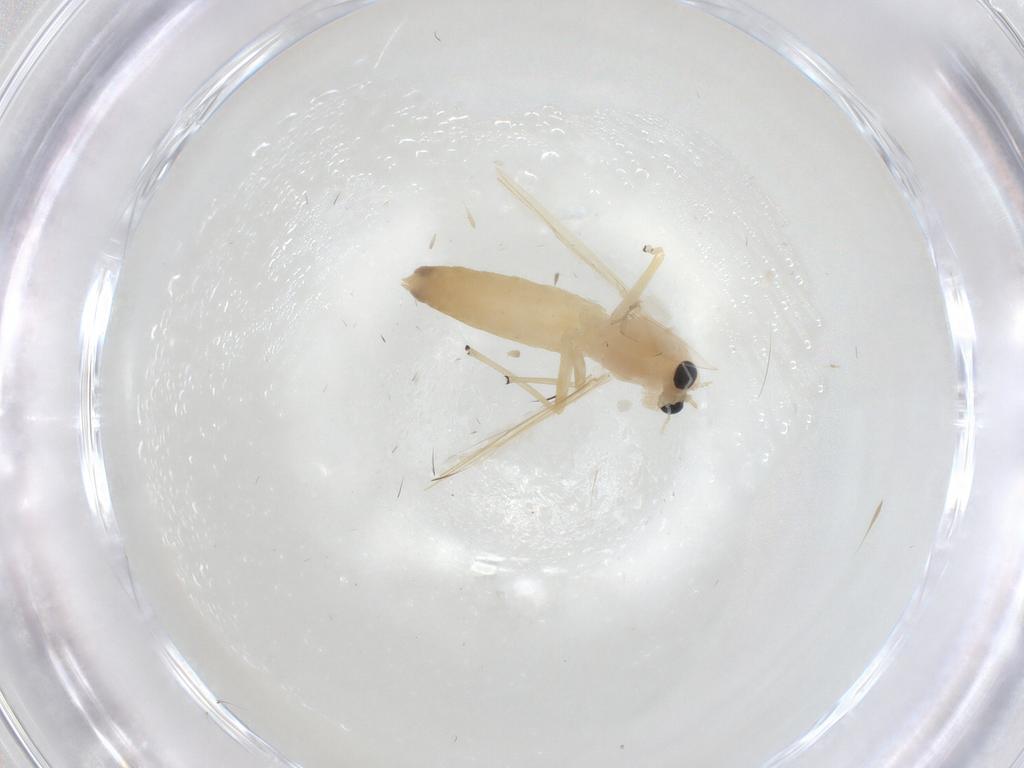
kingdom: Animalia
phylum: Arthropoda
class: Insecta
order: Diptera
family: Chironomidae
